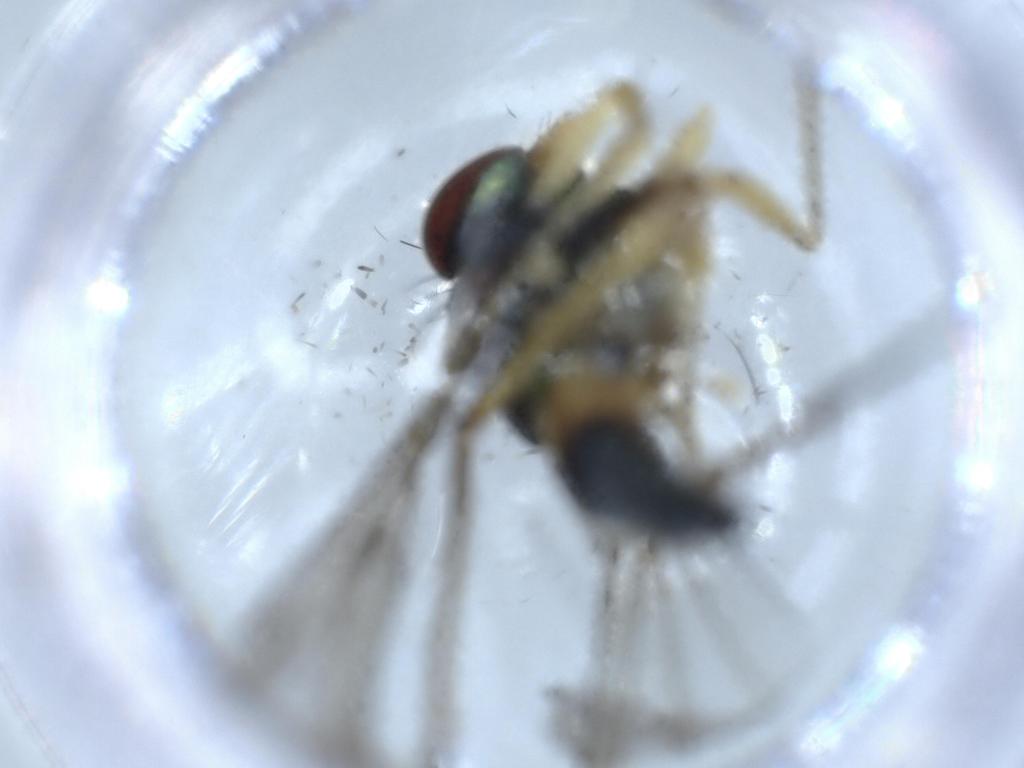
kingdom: Animalia
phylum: Arthropoda
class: Insecta
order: Diptera
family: Dolichopodidae
